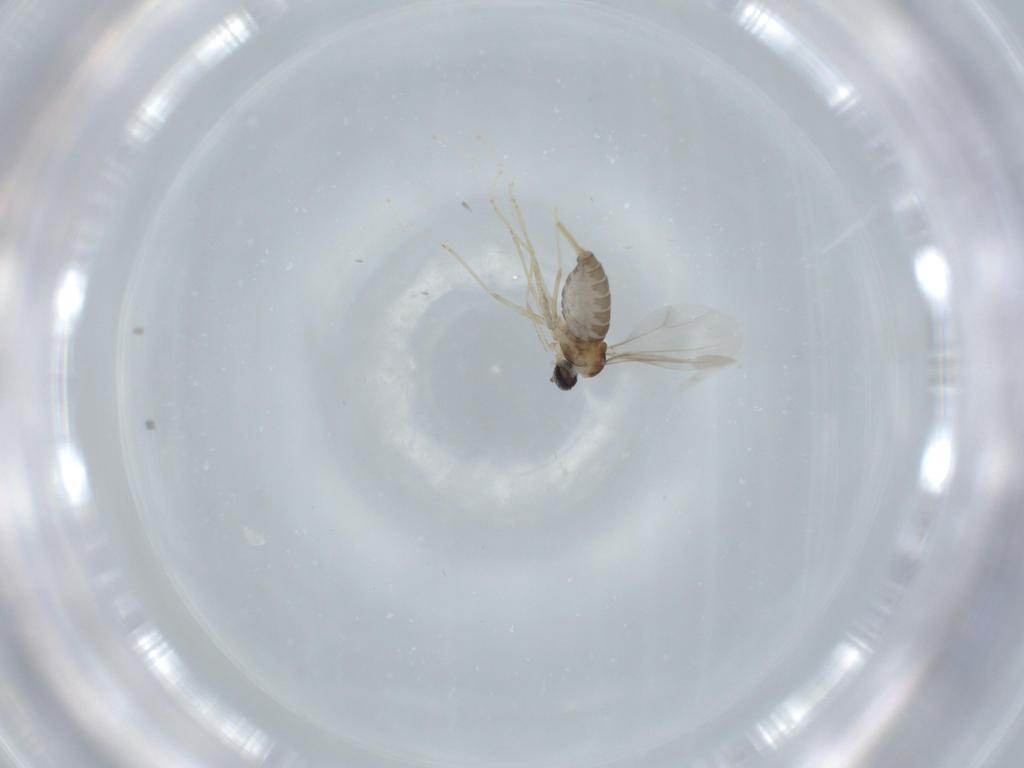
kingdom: Animalia
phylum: Arthropoda
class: Insecta
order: Diptera
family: Cecidomyiidae
